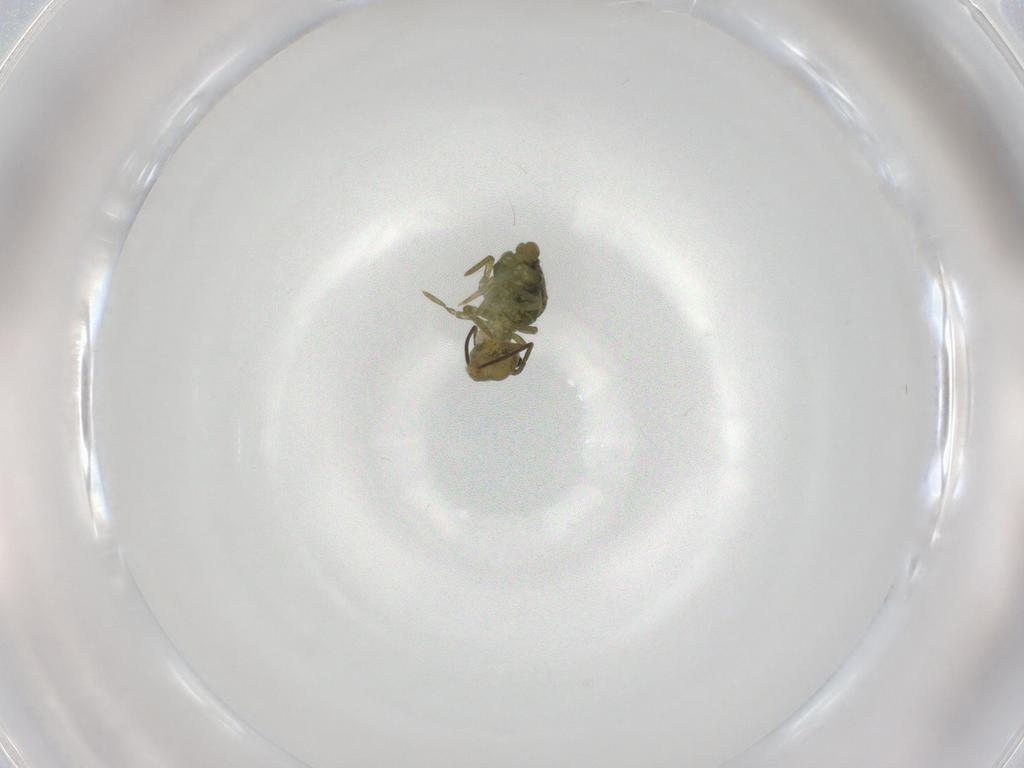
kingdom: Animalia
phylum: Arthropoda
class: Collembola
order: Symphypleona
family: Sminthuridae
